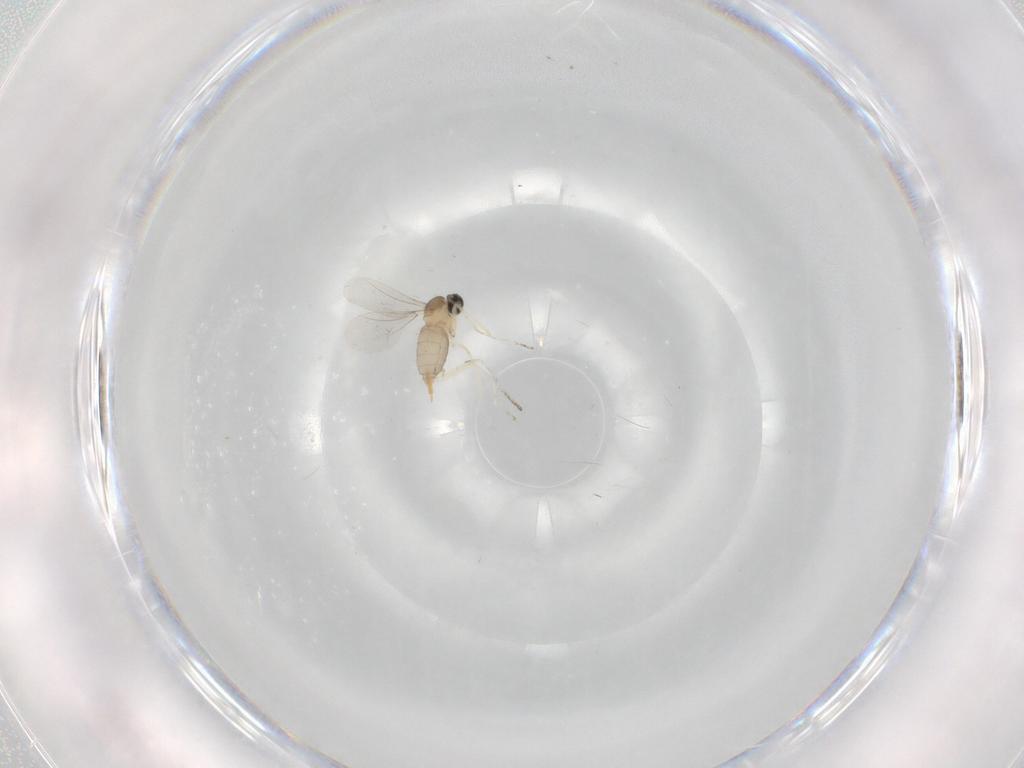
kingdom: Animalia
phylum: Arthropoda
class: Insecta
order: Diptera
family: Cecidomyiidae
